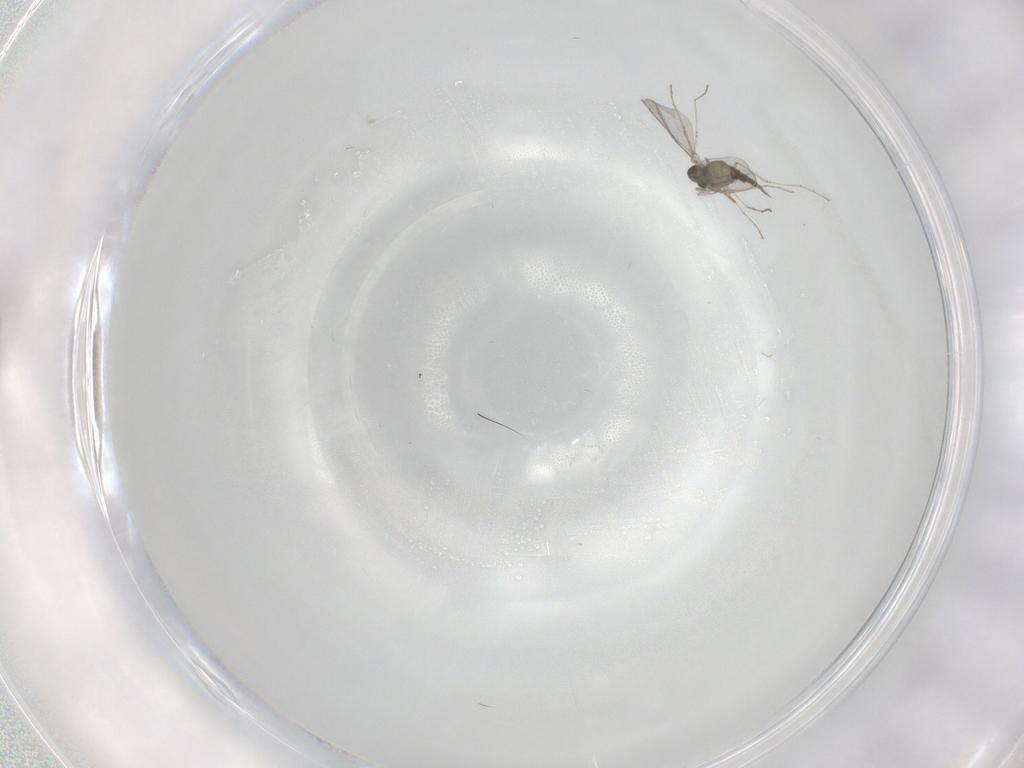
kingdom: Animalia
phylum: Arthropoda
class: Insecta
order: Diptera
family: Cecidomyiidae
